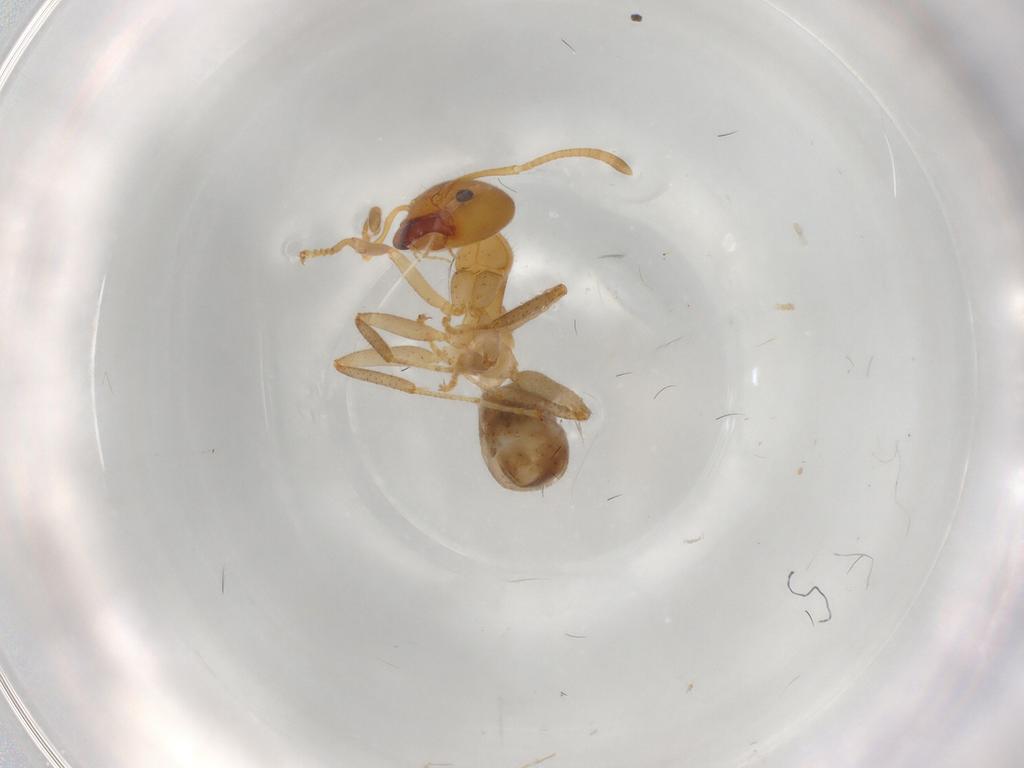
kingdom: Animalia
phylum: Arthropoda
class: Insecta
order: Hymenoptera
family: Formicidae
